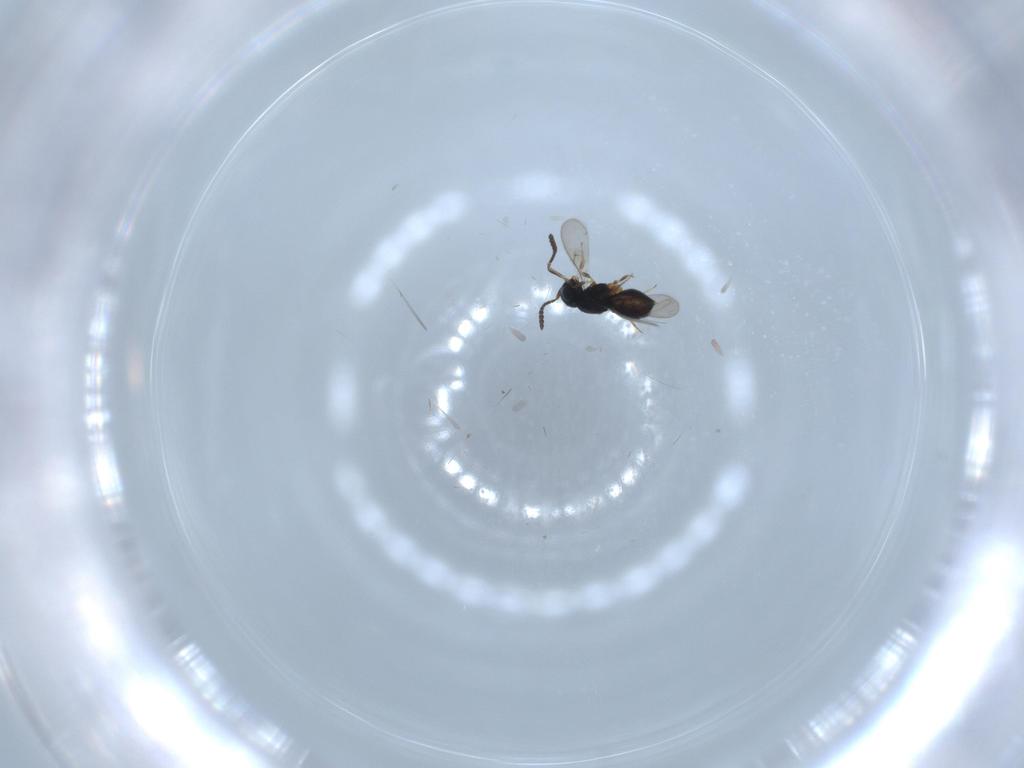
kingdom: Animalia
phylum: Arthropoda
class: Insecta
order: Hymenoptera
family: Scelionidae
